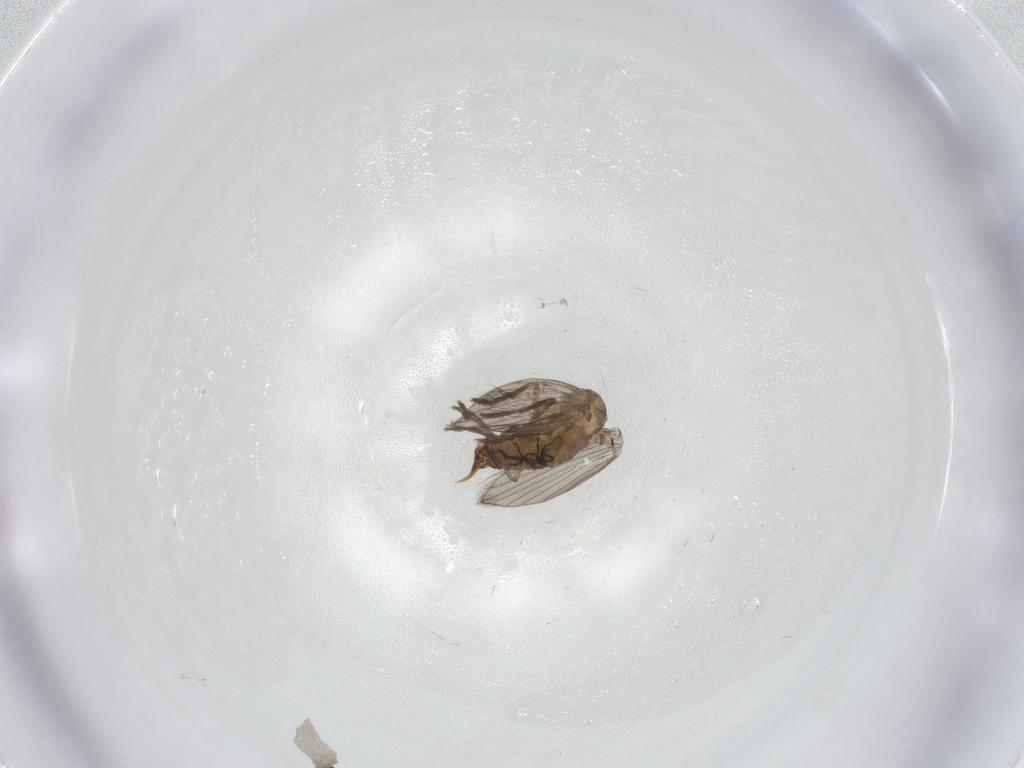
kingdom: Animalia
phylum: Arthropoda
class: Insecta
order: Diptera
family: Psychodidae
